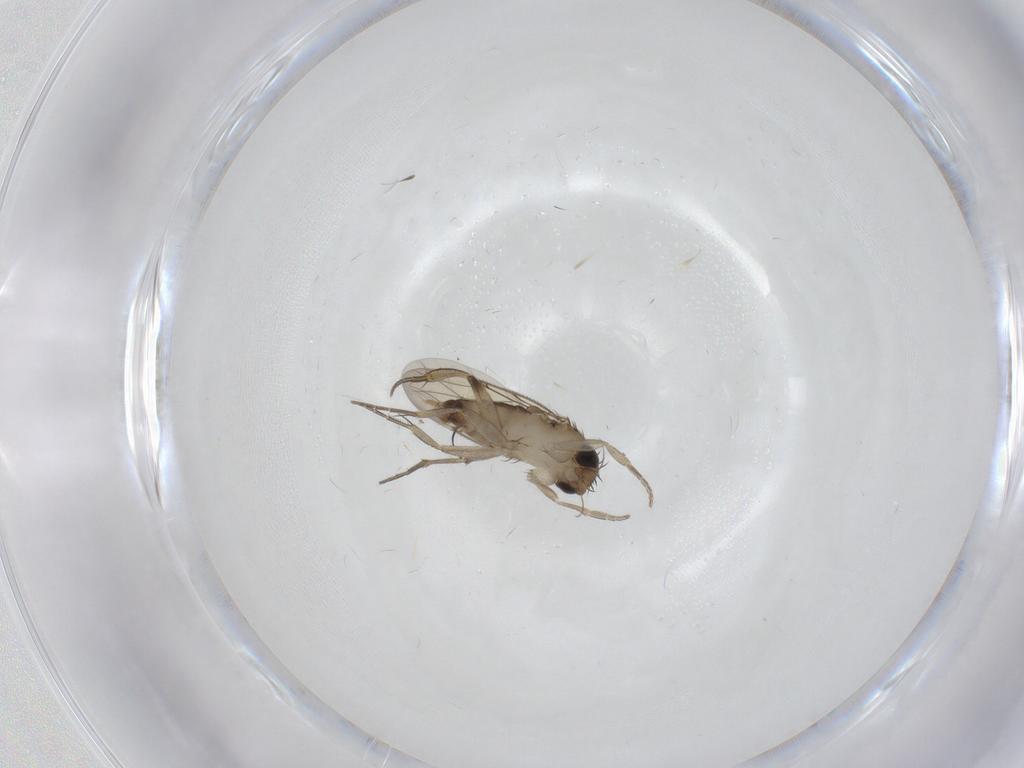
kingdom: Animalia
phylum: Arthropoda
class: Insecta
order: Diptera
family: Phoridae
